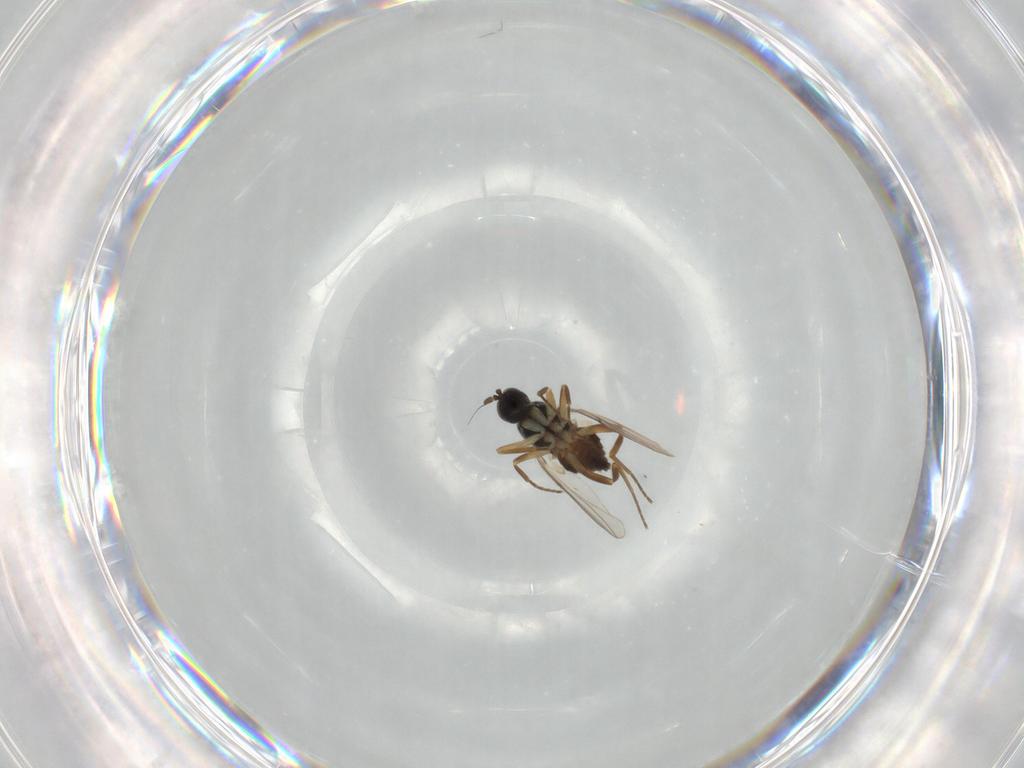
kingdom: Animalia
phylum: Arthropoda
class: Insecta
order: Diptera
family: Hybotidae
